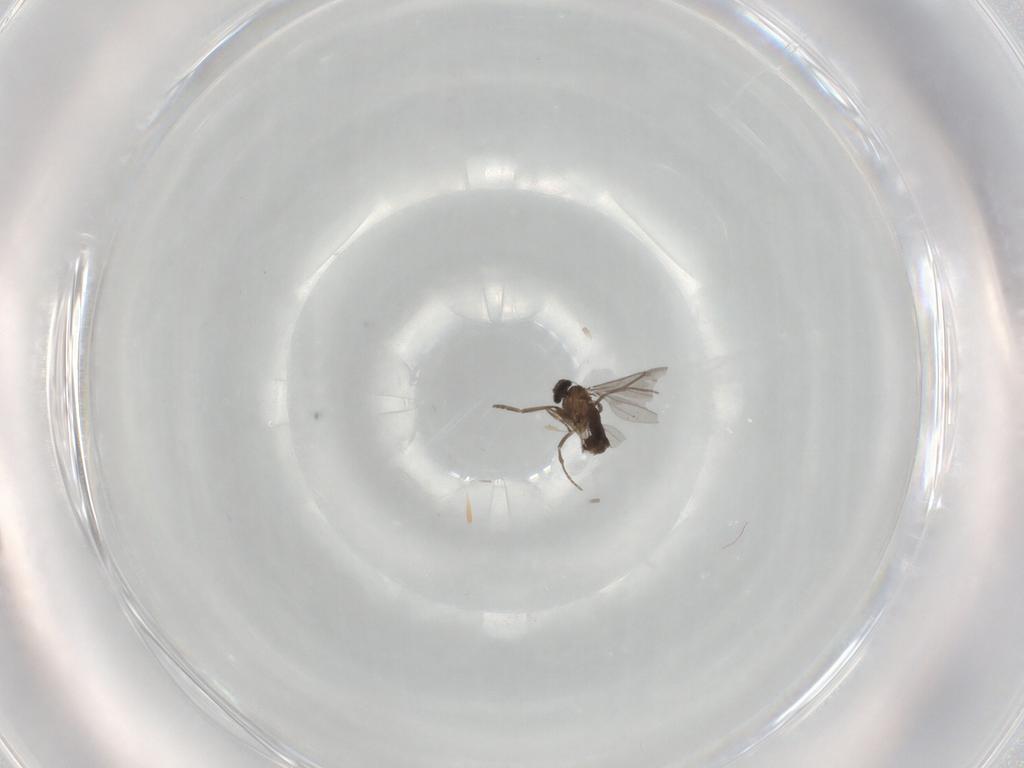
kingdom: Animalia
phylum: Arthropoda
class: Insecta
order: Diptera
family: Phoridae
